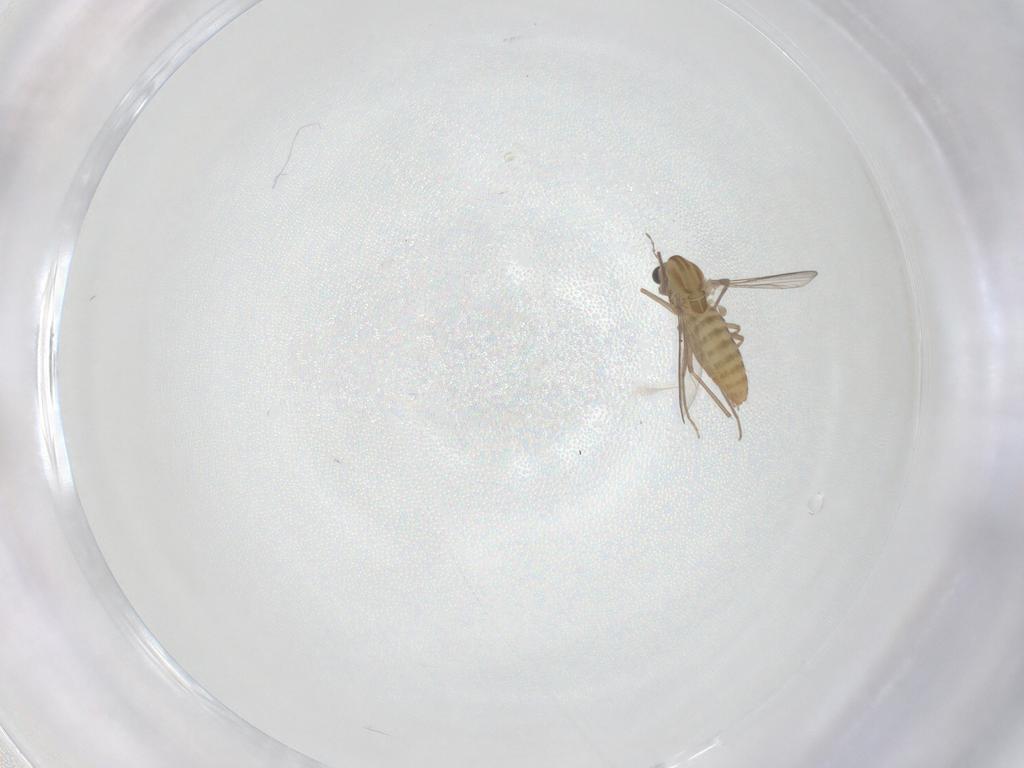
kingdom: Animalia
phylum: Arthropoda
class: Insecta
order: Diptera
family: Chironomidae
